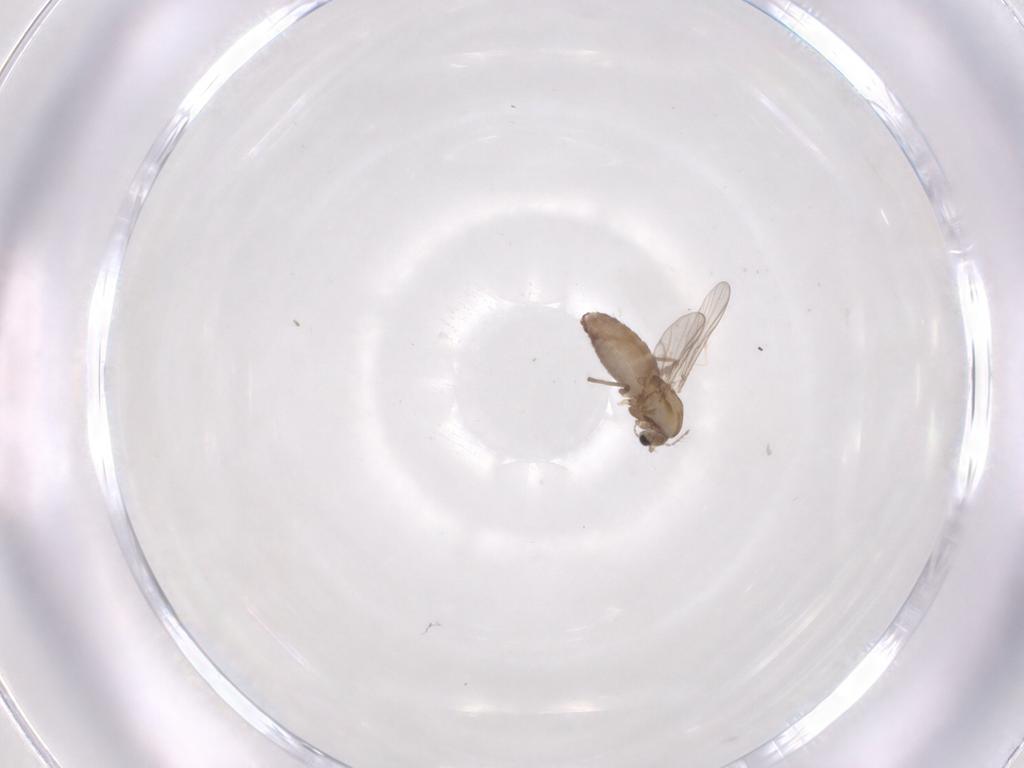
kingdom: Animalia
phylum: Arthropoda
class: Insecta
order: Diptera
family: Chironomidae
